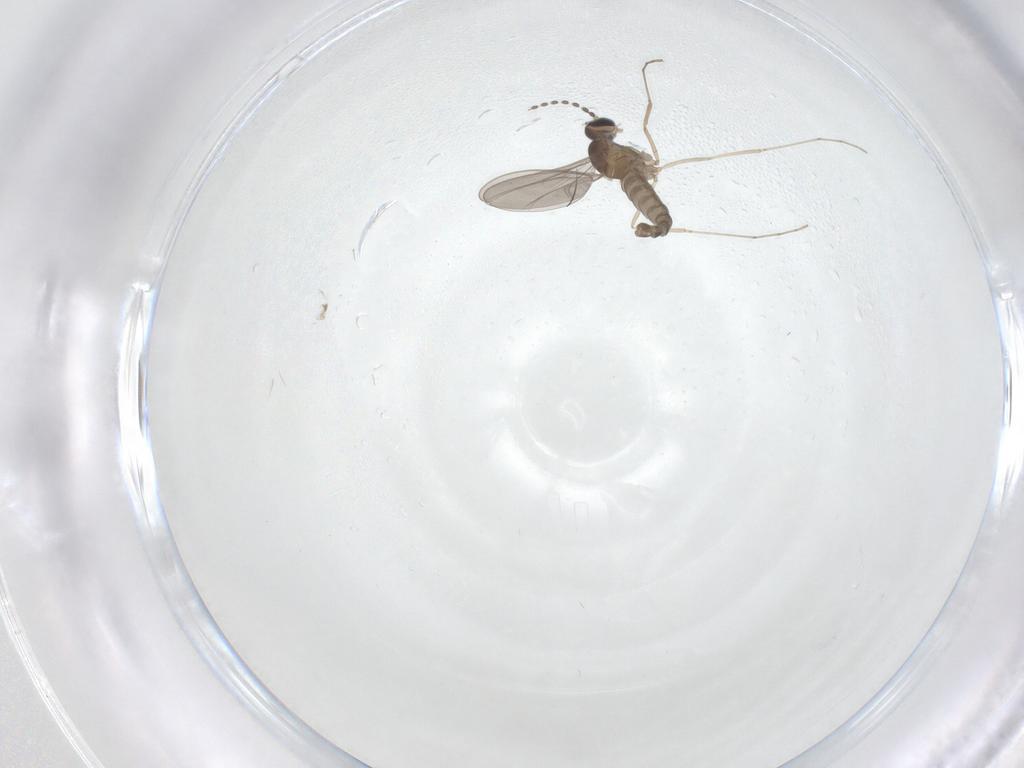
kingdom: Animalia
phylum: Arthropoda
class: Insecta
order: Diptera
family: Cecidomyiidae
